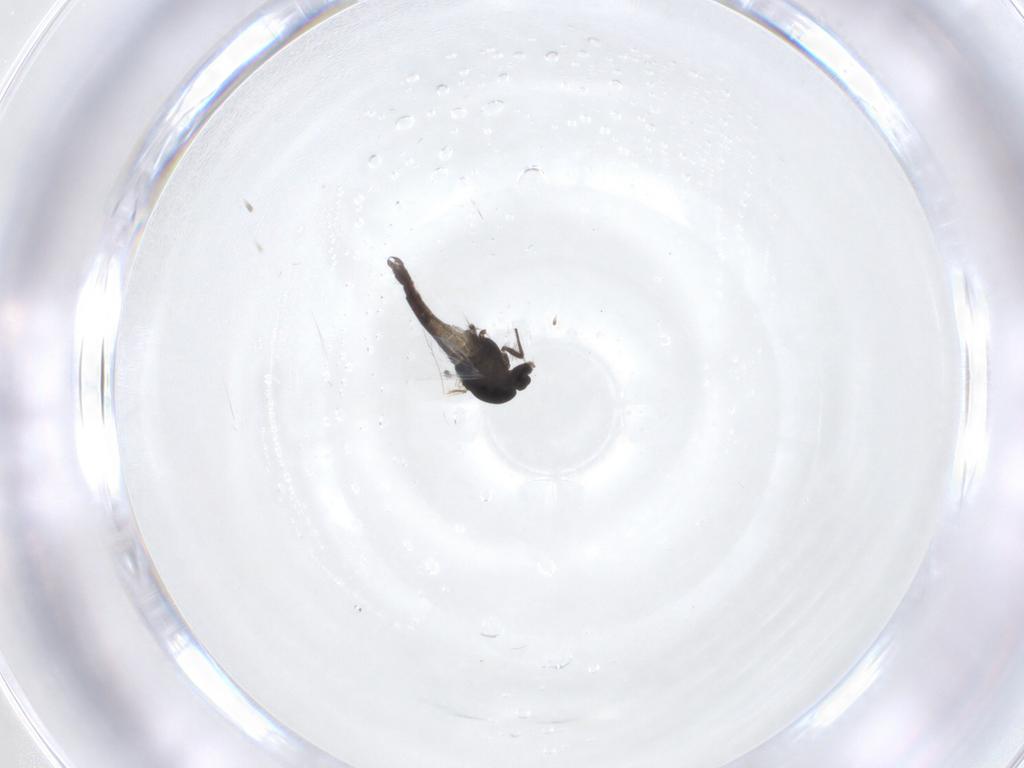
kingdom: Animalia
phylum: Arthropoda
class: Insecta
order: Diptera
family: Chironomidae
